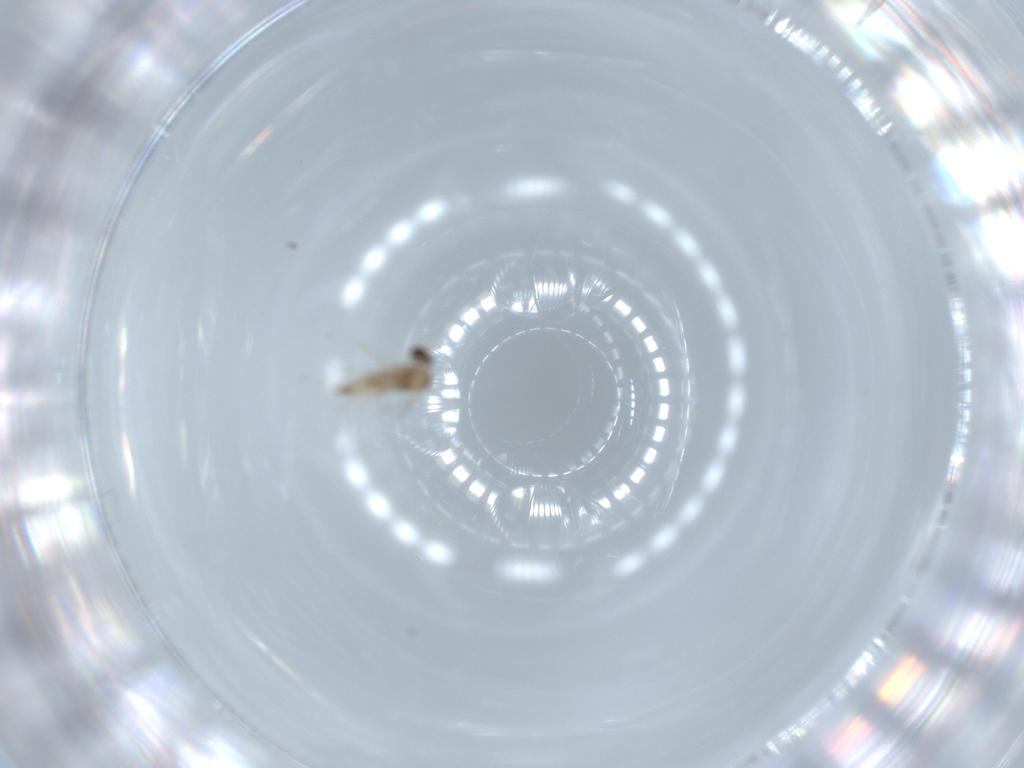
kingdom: Animalia
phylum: Arthropoda
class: Insecta
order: Diptera
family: Cecidomyiidae
